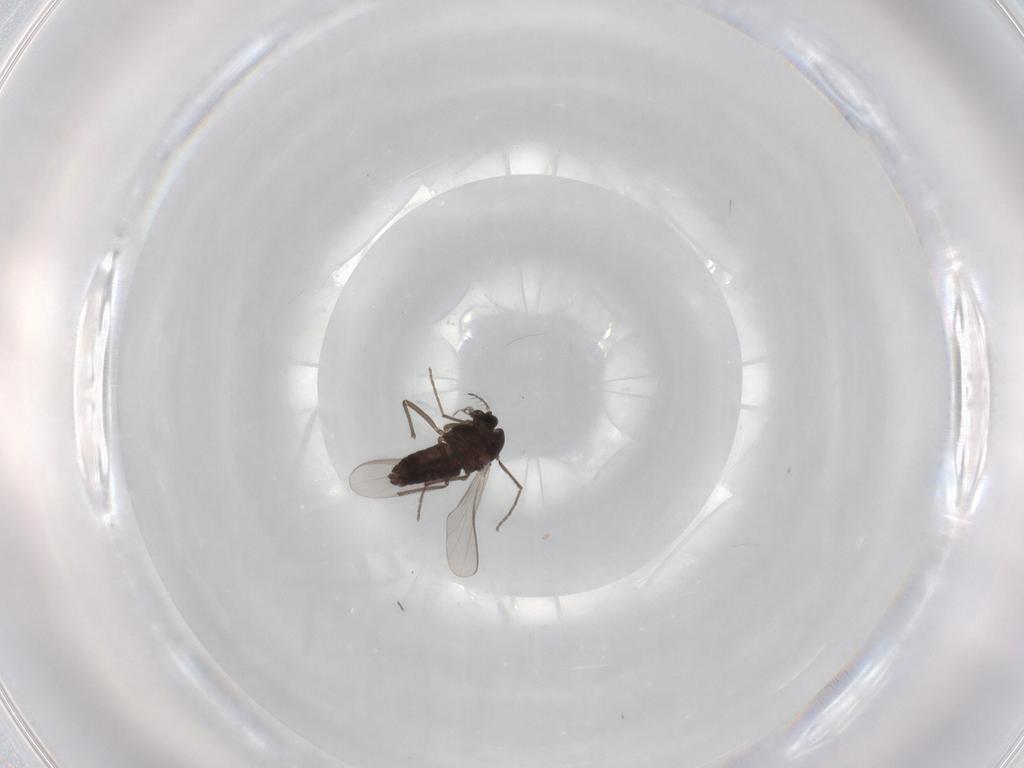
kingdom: Animalia
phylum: Arthropoda
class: Insecta
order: Diptera
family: Chironomidae
